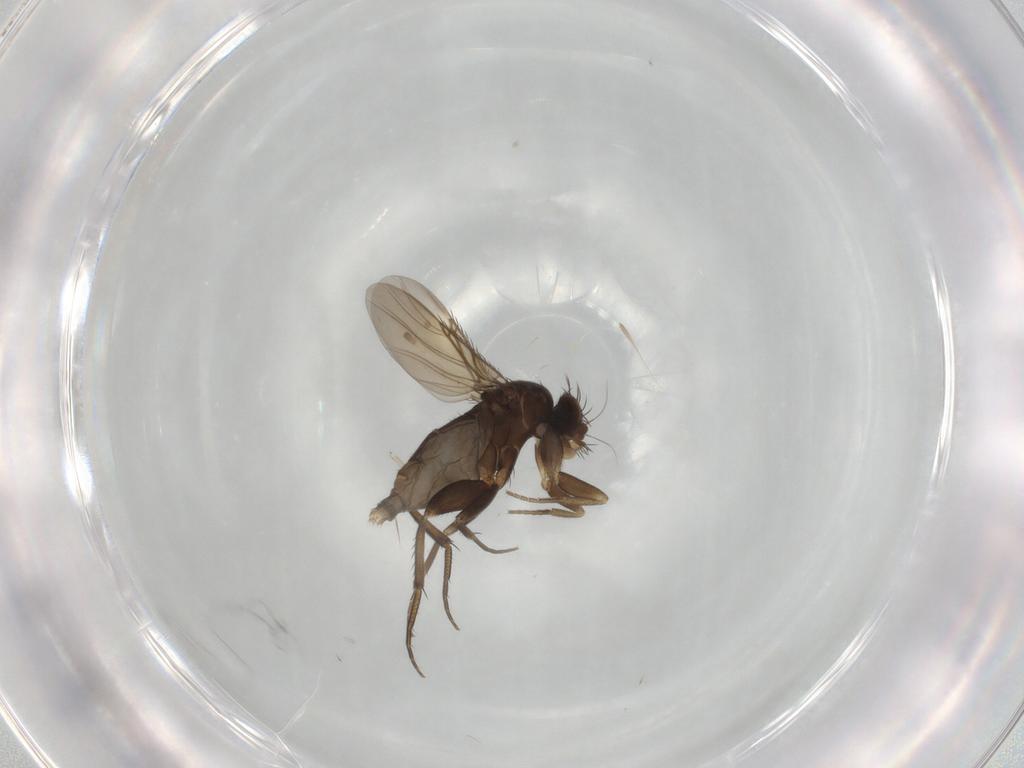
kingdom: Animalia
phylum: Arthropoda
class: Insecta
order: Diptera
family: Phoridae
